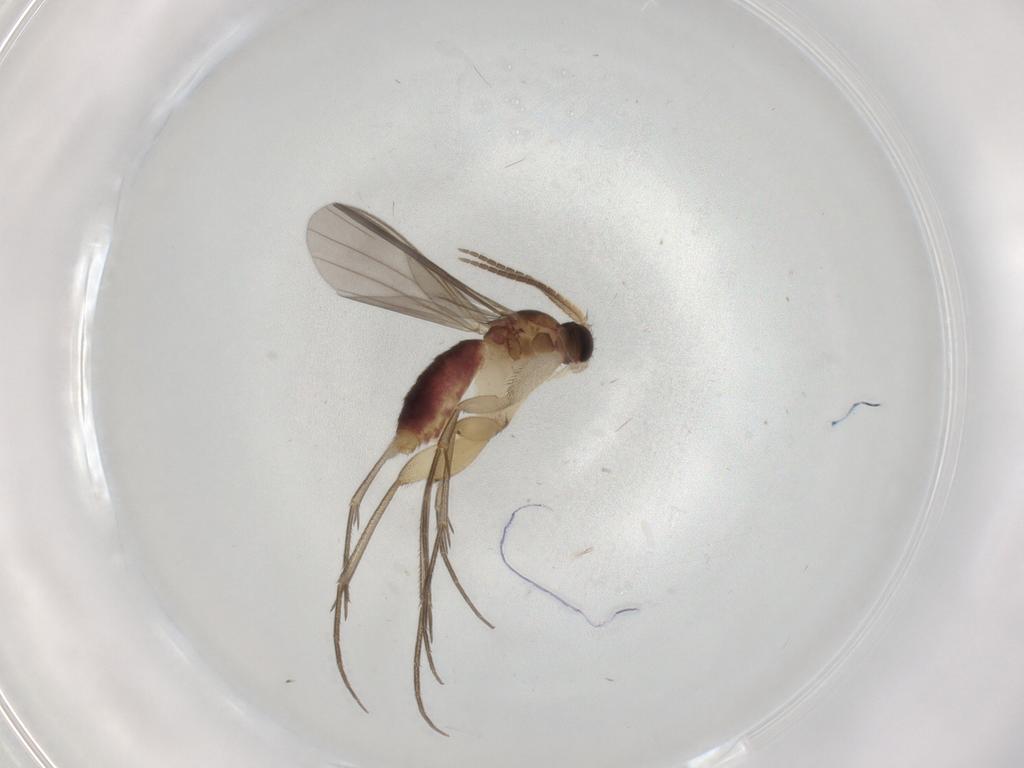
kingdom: Animalia
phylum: Arthropoda
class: Insecta
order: Diptera
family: Mycetophilidae
